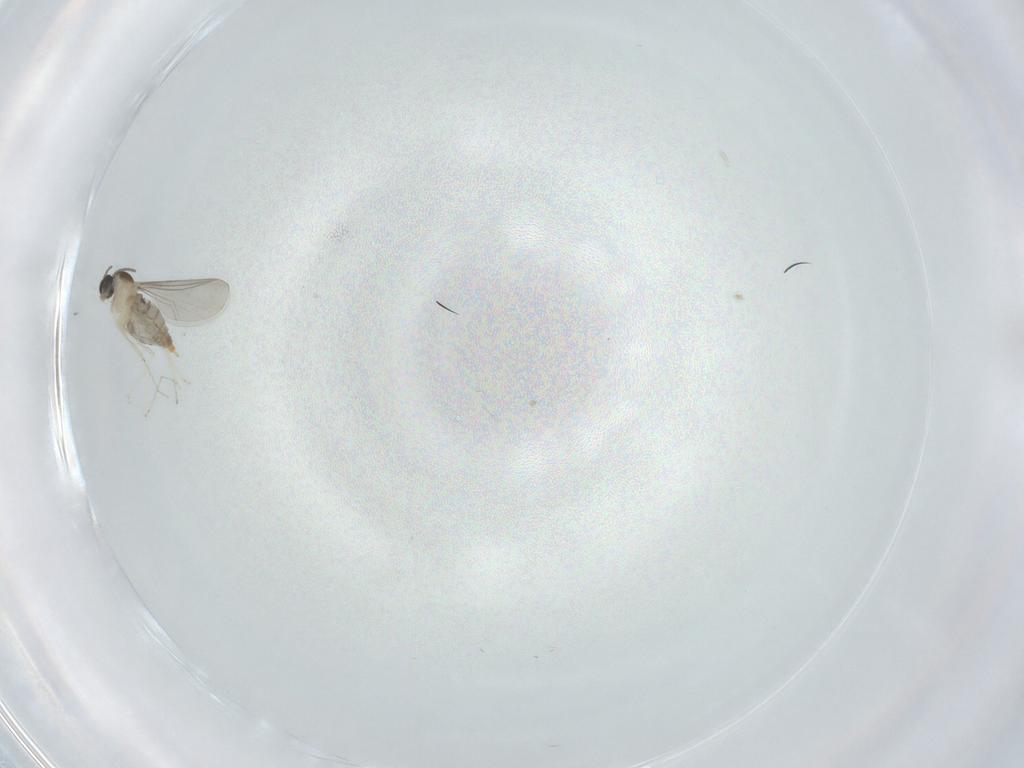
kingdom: Animalia
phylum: Arthropoda
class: Insecta
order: Diptera
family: Cecidomyiidae
